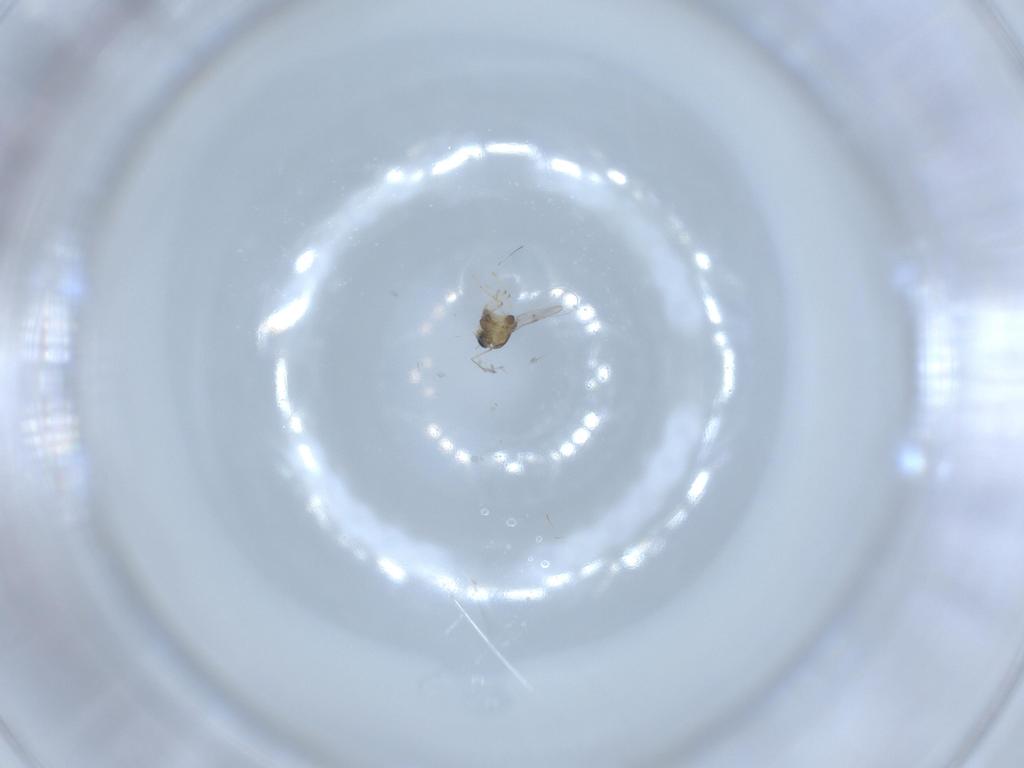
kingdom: Animalia
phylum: Arthropoda
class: Insecta
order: Diptera
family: Chironomidae
